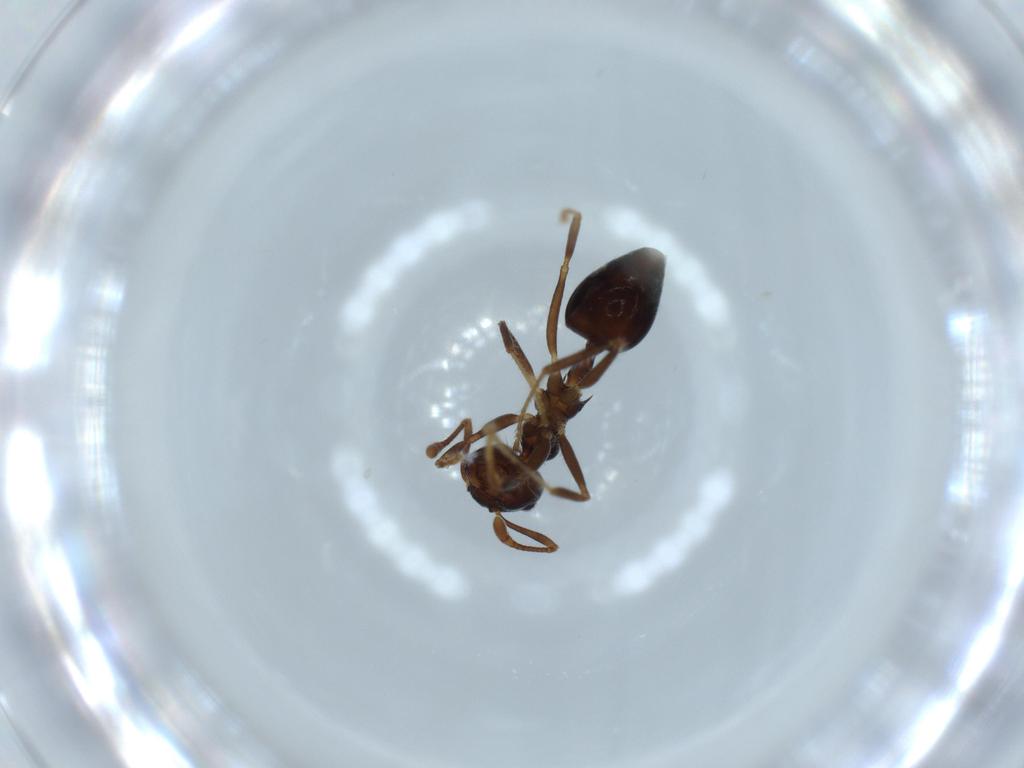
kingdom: Animalia
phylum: Arthropoda
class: Insecta
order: Hymenoptera
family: Formicidae
